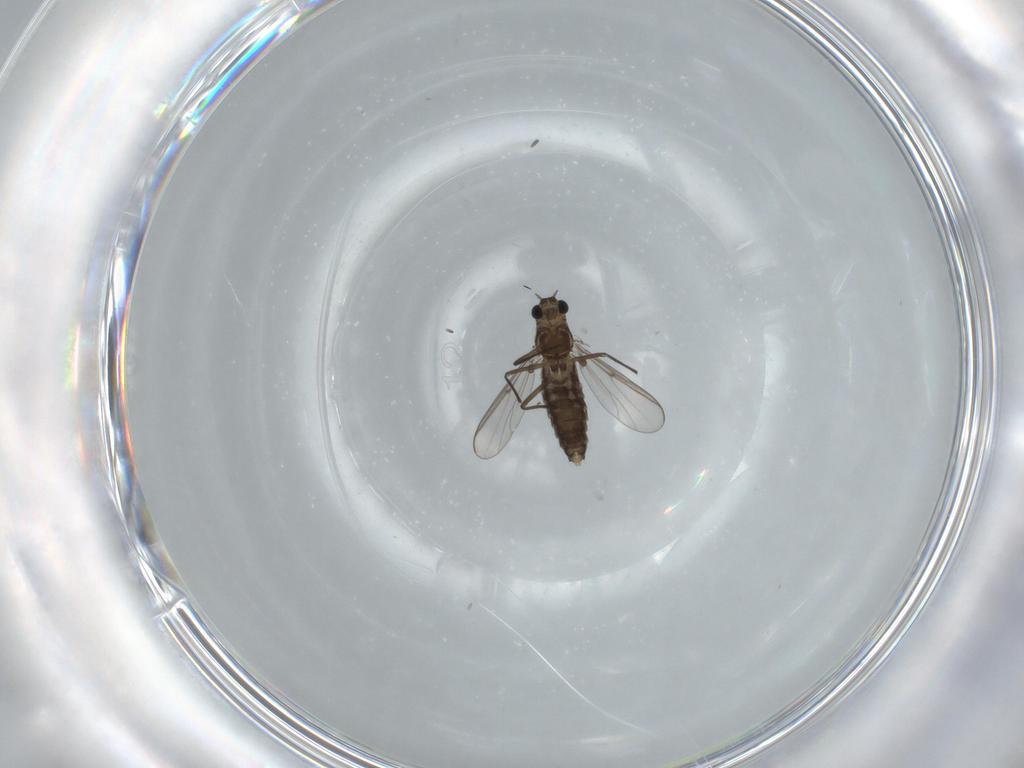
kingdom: Animalia
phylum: Arthropoda
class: Insecta
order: Diptera
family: Chironomidae
